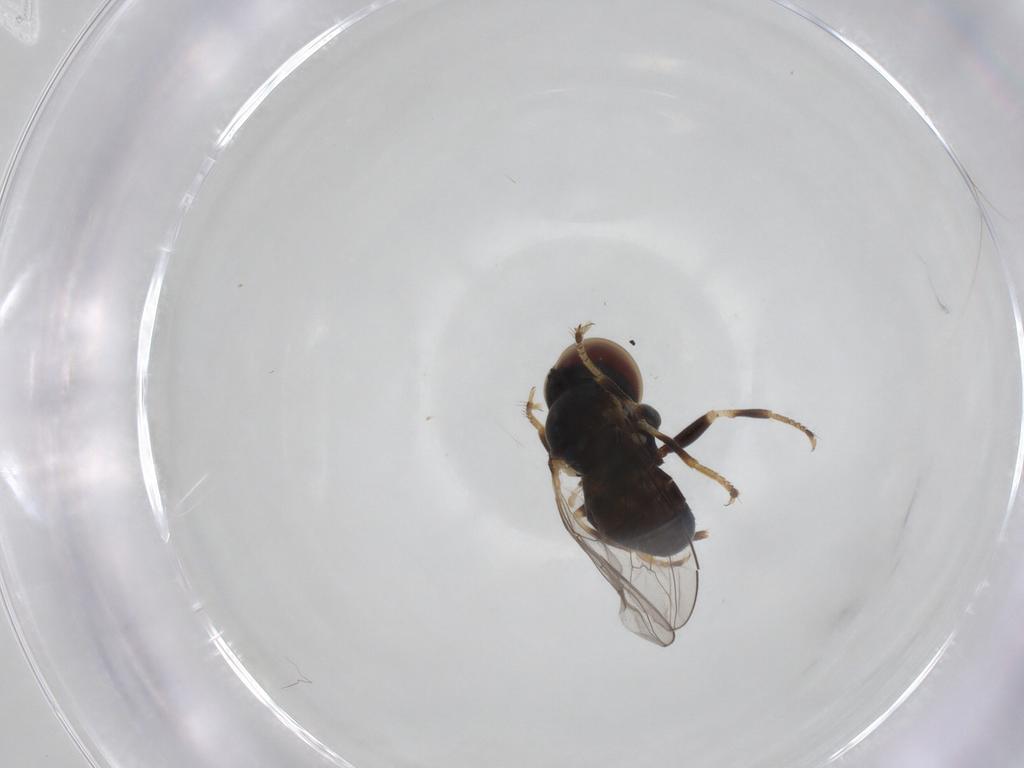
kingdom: Animalia
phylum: Arthropoda
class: Insecta
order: Diptera
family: Pipunculidae
